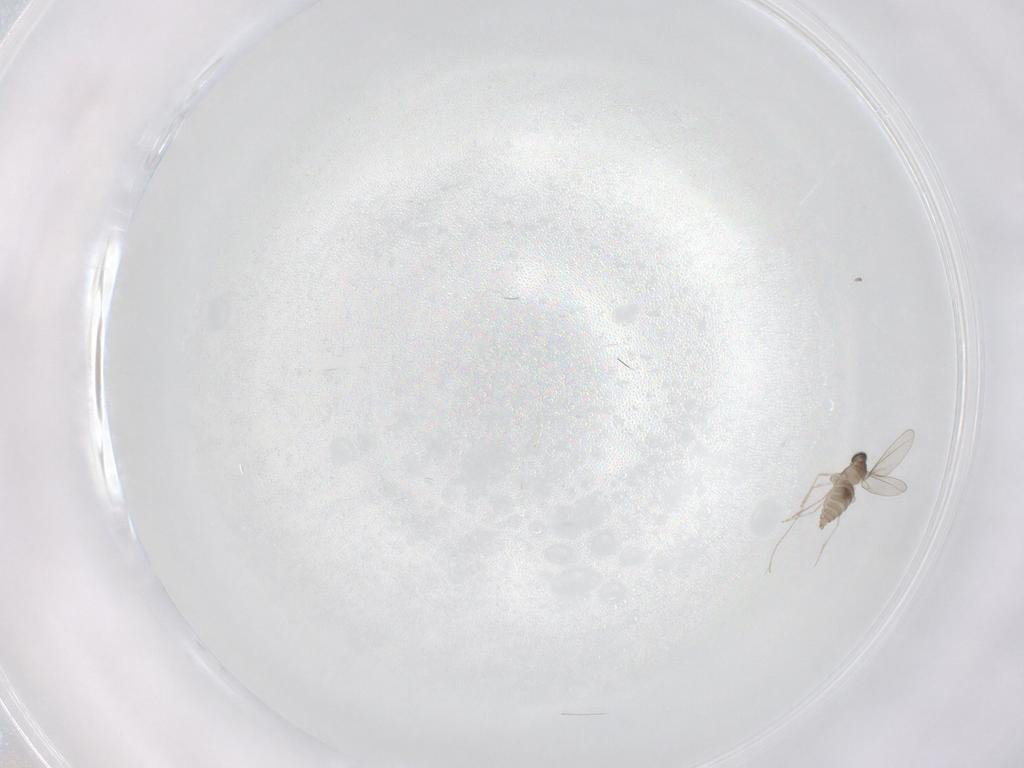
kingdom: Animalia
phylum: Arthropoda
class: Insecta
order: Diptera
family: Cecidomyiidae
